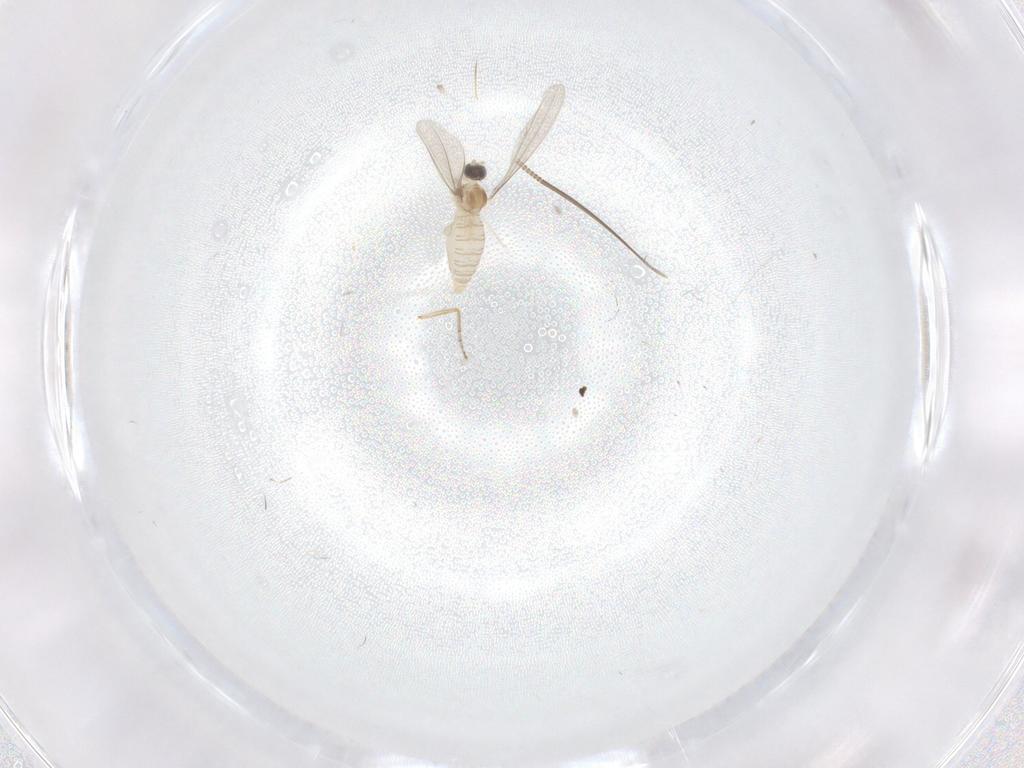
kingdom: Animalia
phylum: Arthropoda
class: Insecta
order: Diptera
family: Cecidomyiidae
